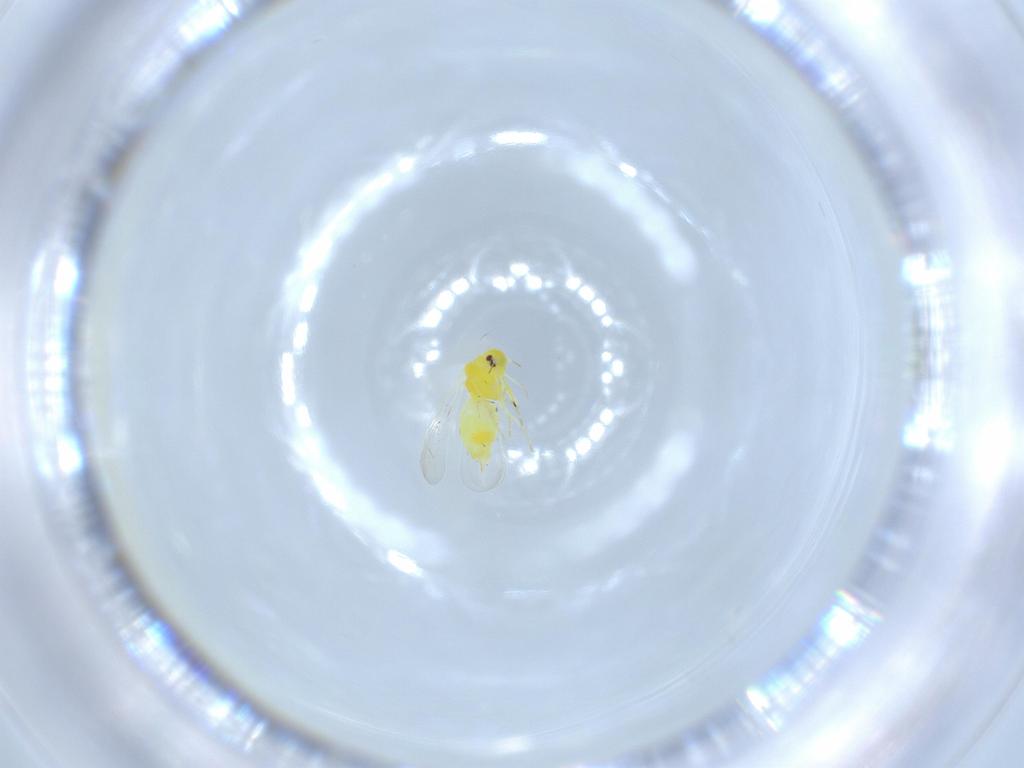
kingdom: Animalia
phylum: Arthropoda
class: Insecta
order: Hemiptera
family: Aleyrodidae
